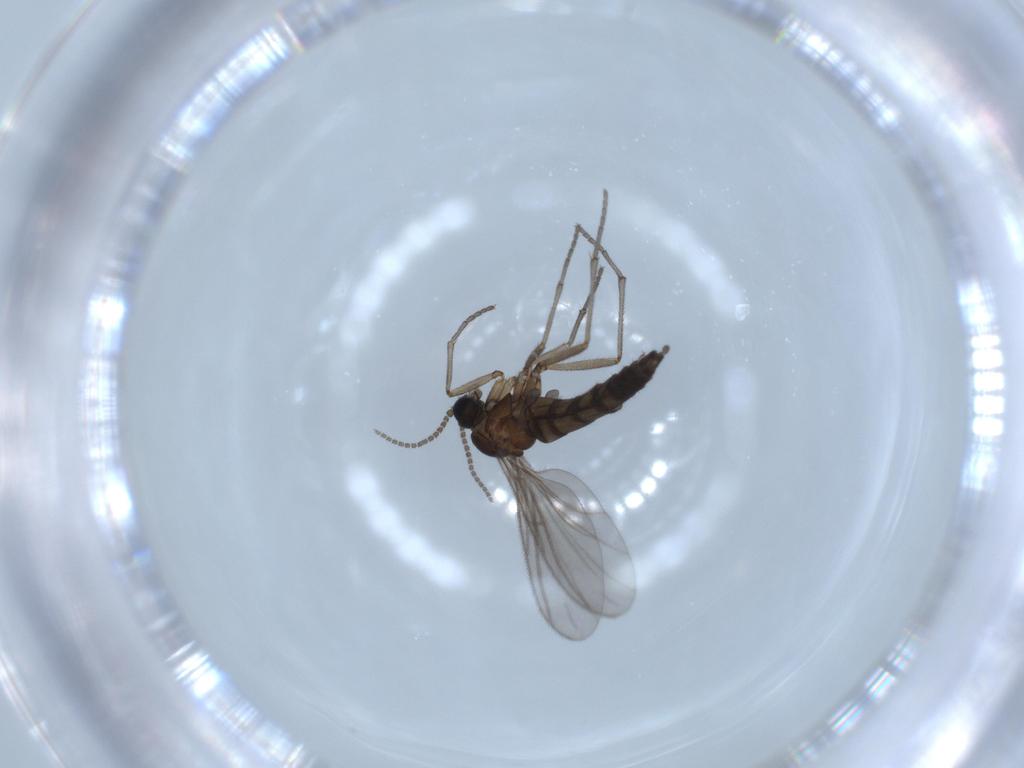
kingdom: Animalia
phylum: Arthropoda
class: Insecta
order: Diptera
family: Sciaridae
